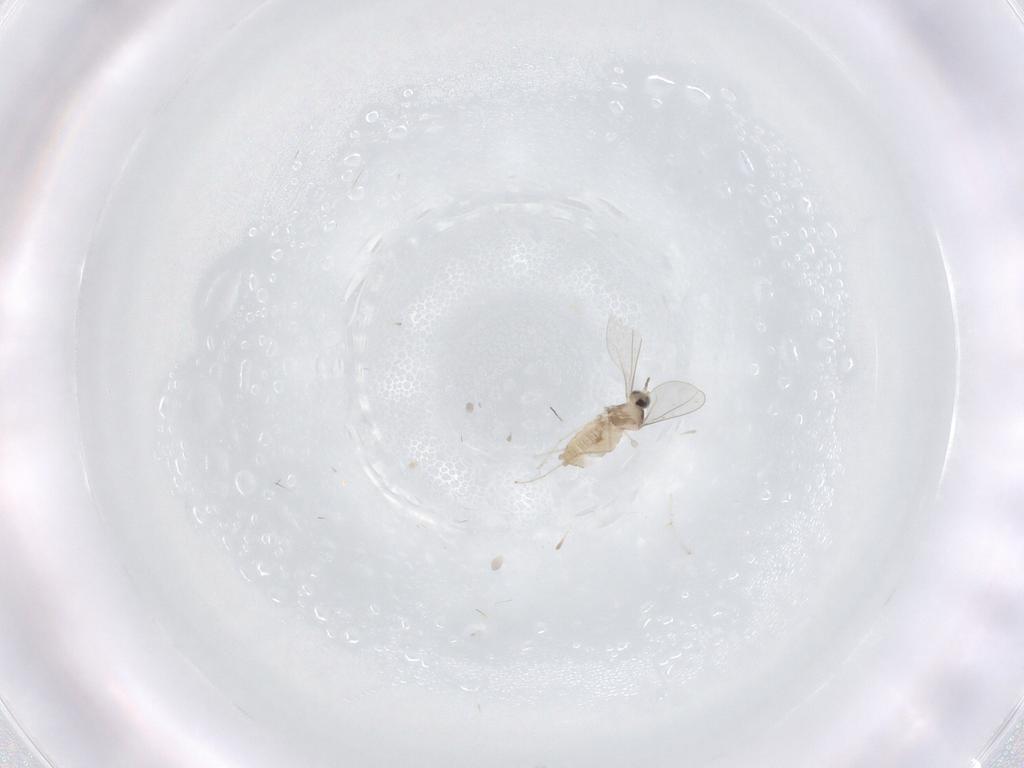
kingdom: Animalia
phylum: Arthropoda
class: Insecta
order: Diptera
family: Cecidomyiidae
